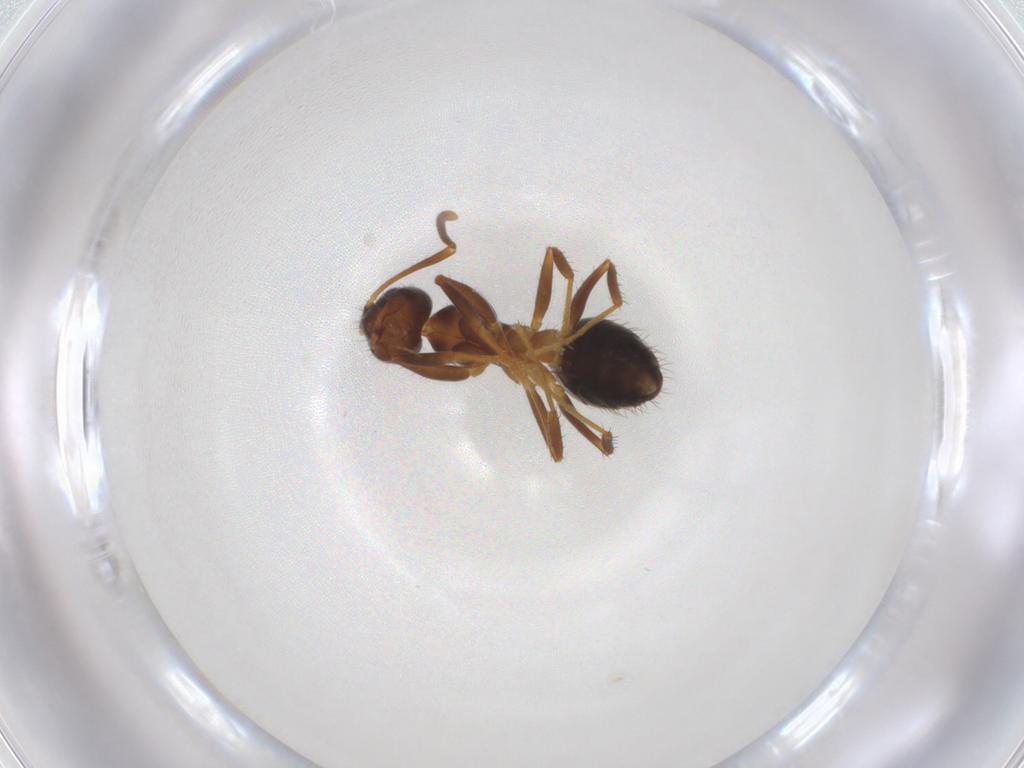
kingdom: Animalia
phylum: Arthropoda
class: Insecta
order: Hymenoptera
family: Formicidae
